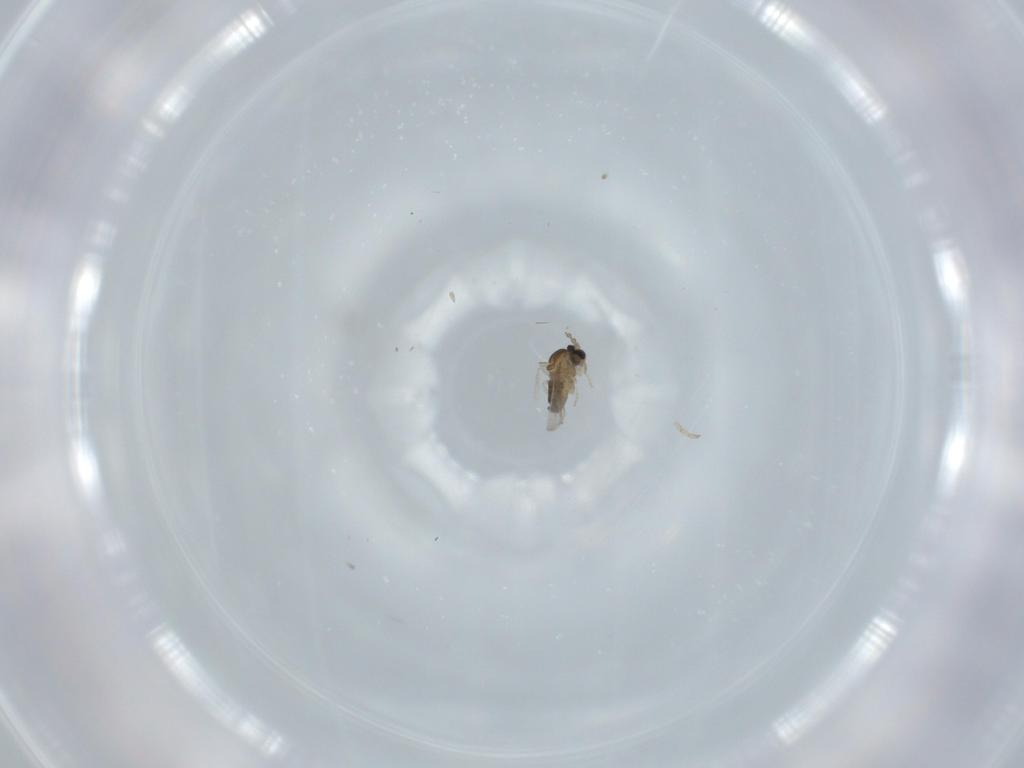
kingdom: Animalia
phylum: Arthropoda
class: Insecta
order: Diptera
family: Cecidomyiidae
